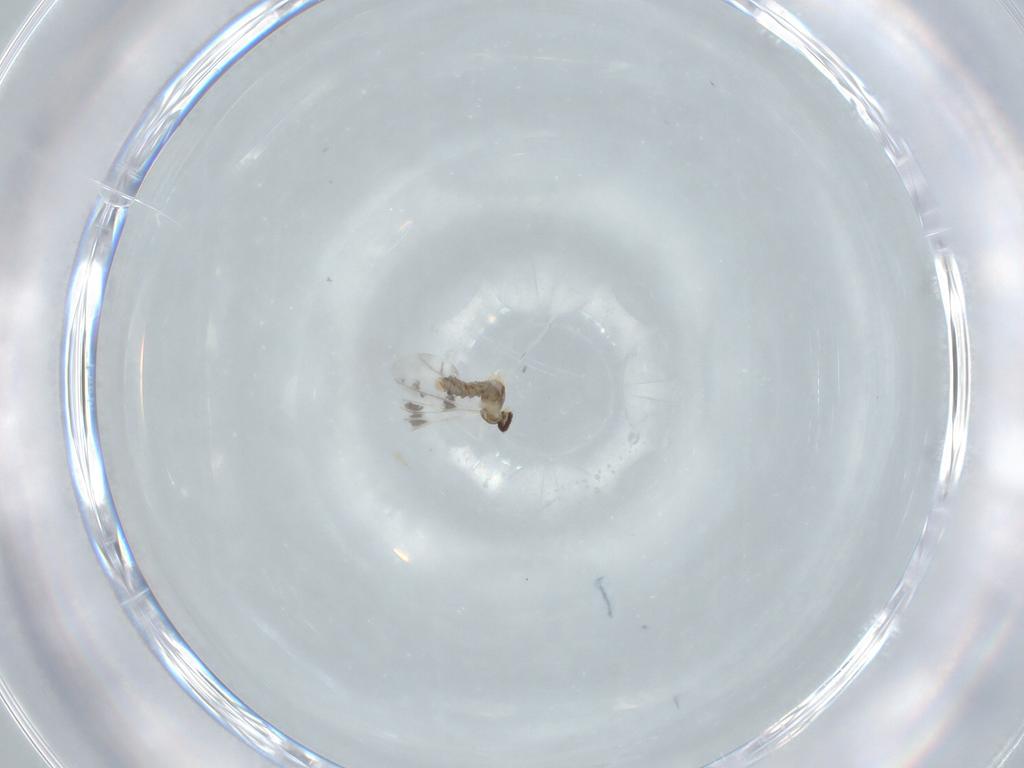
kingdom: Animalia
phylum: Arthropoda
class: Insecta
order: Diptera
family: Cecidomyiidae
